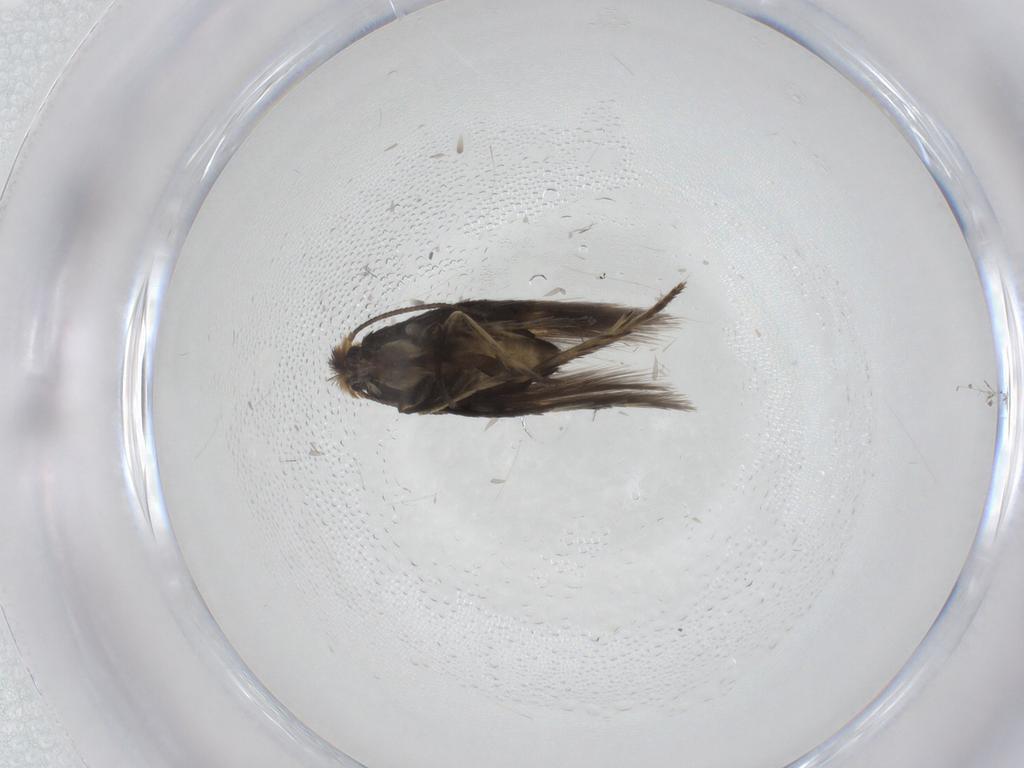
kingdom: Animalia
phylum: Arthropoda
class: Insecta
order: Lepidoptera
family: Nepticulidae
